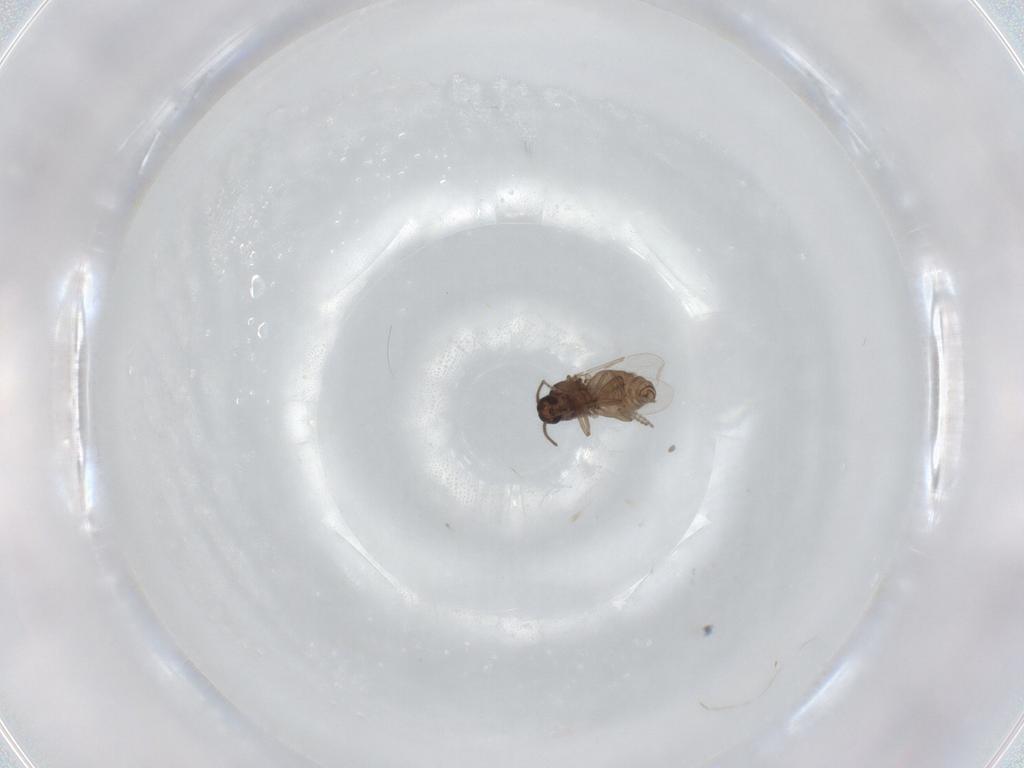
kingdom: Animalia
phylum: Arthropoda
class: Insecta
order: Diptera
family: Ceratopogonidae
